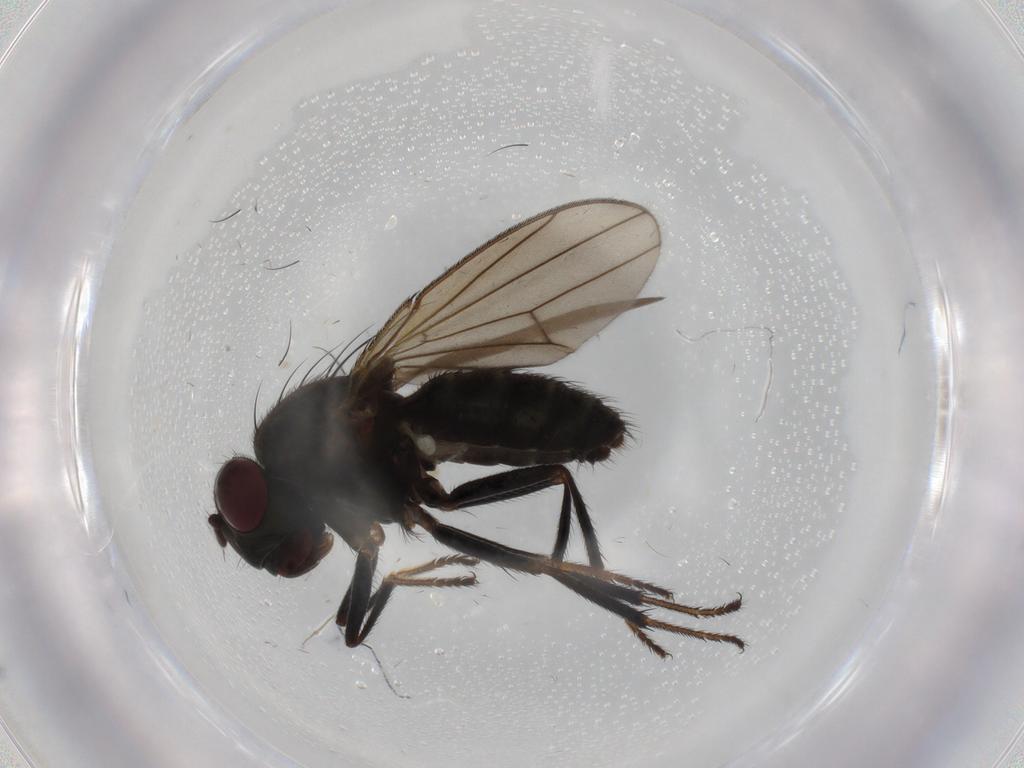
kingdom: Animalia
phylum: Arthropoda
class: Insecta
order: Diptera
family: Ephydridae
